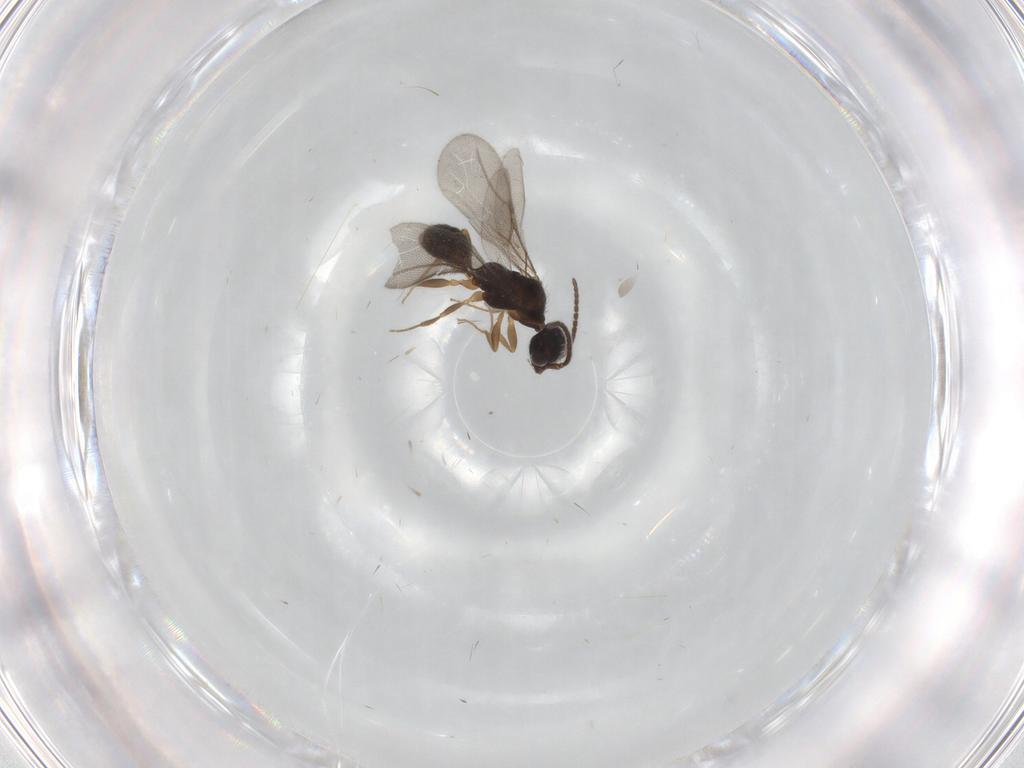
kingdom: Animalia
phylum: Arthropoda
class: Insecta
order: Hymenoptera
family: Bethylidae
